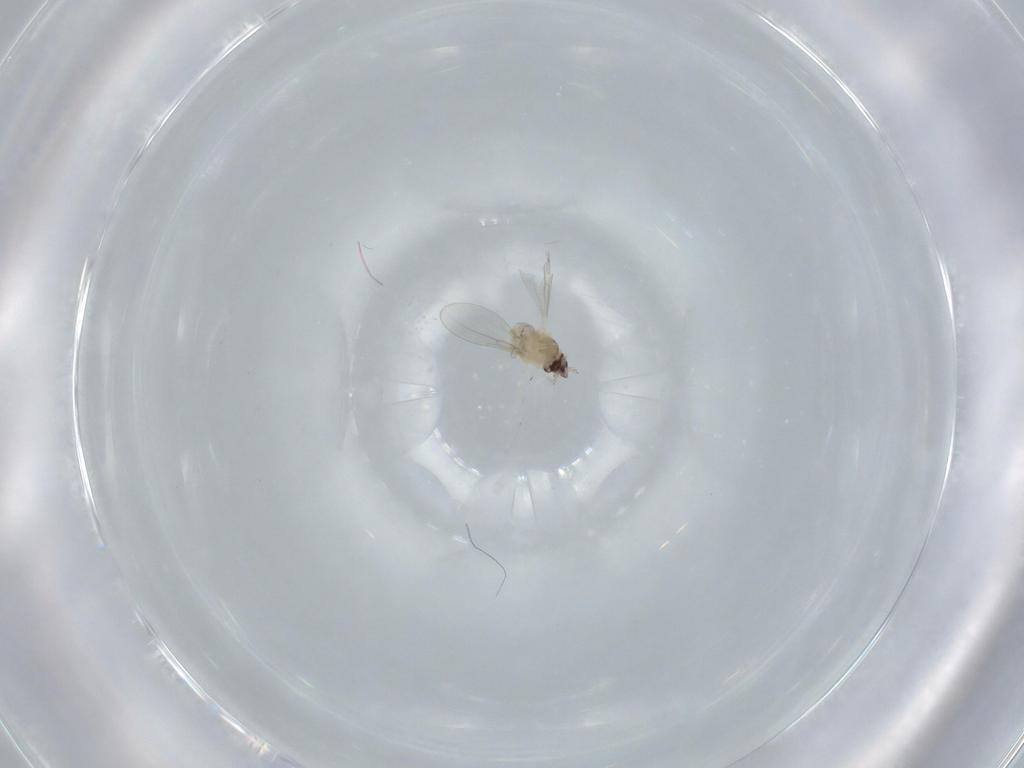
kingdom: Animalia
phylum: Arthropoda
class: Insecta
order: Diptera
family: Cecidomyiidae
